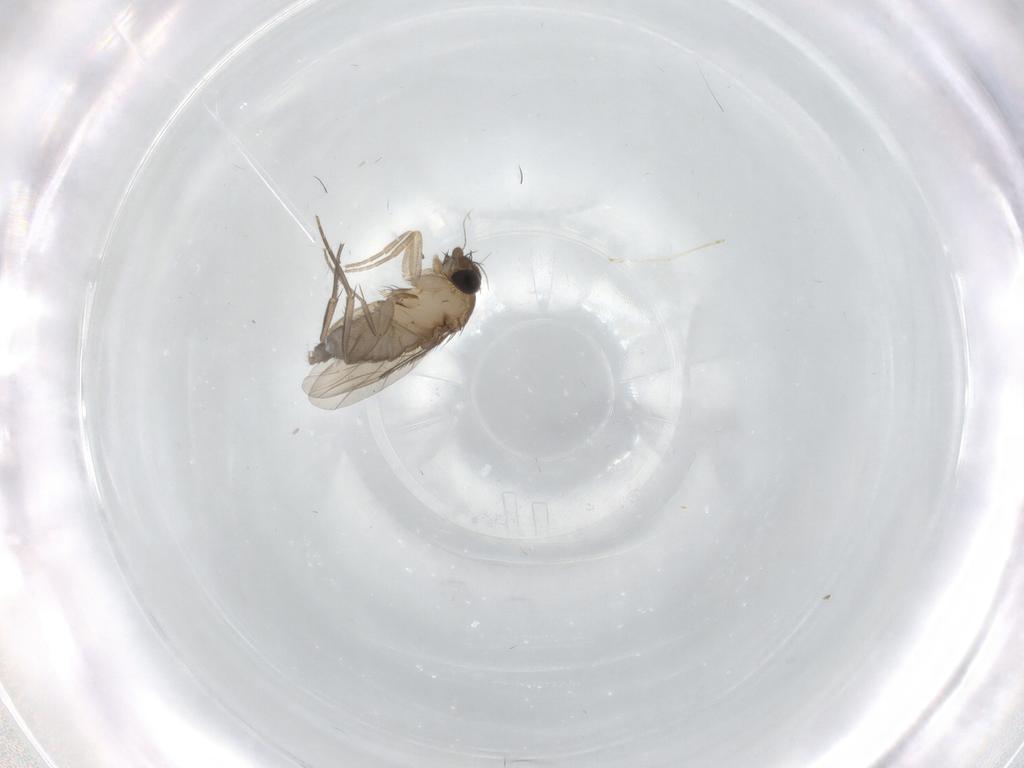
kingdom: Animalia
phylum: Arthropoda
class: Insecta
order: Diptera
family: Phoridae
